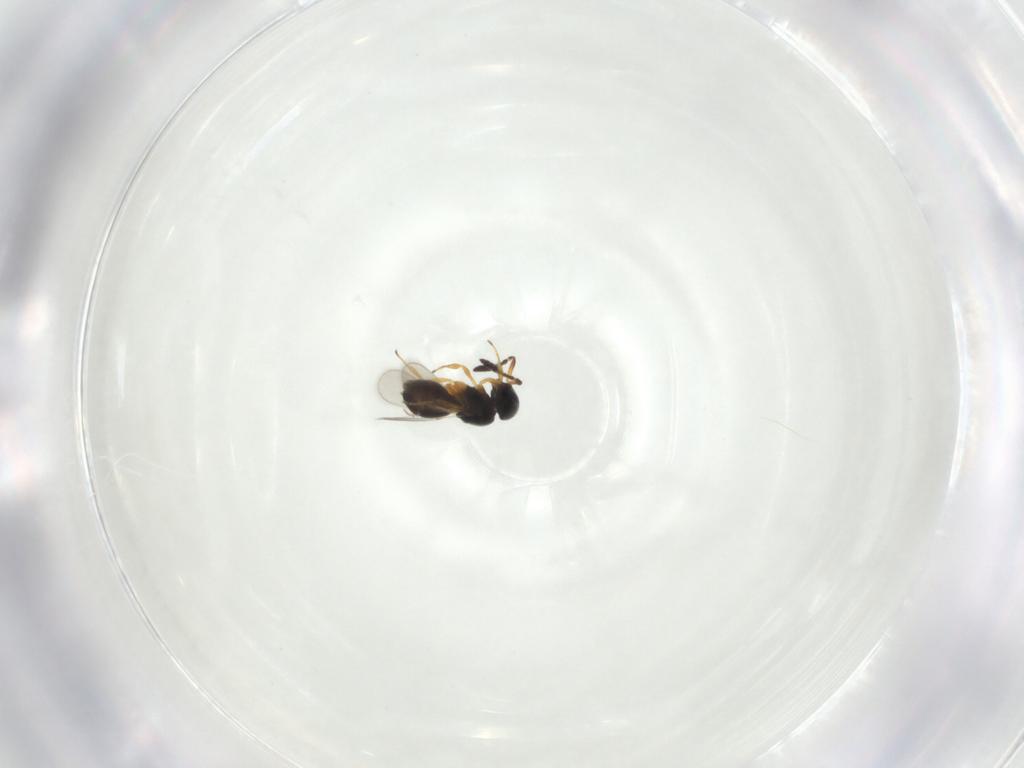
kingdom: Animalia
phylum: Arthropoda
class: Insecta
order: Hymenoptera
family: Scelionidae
